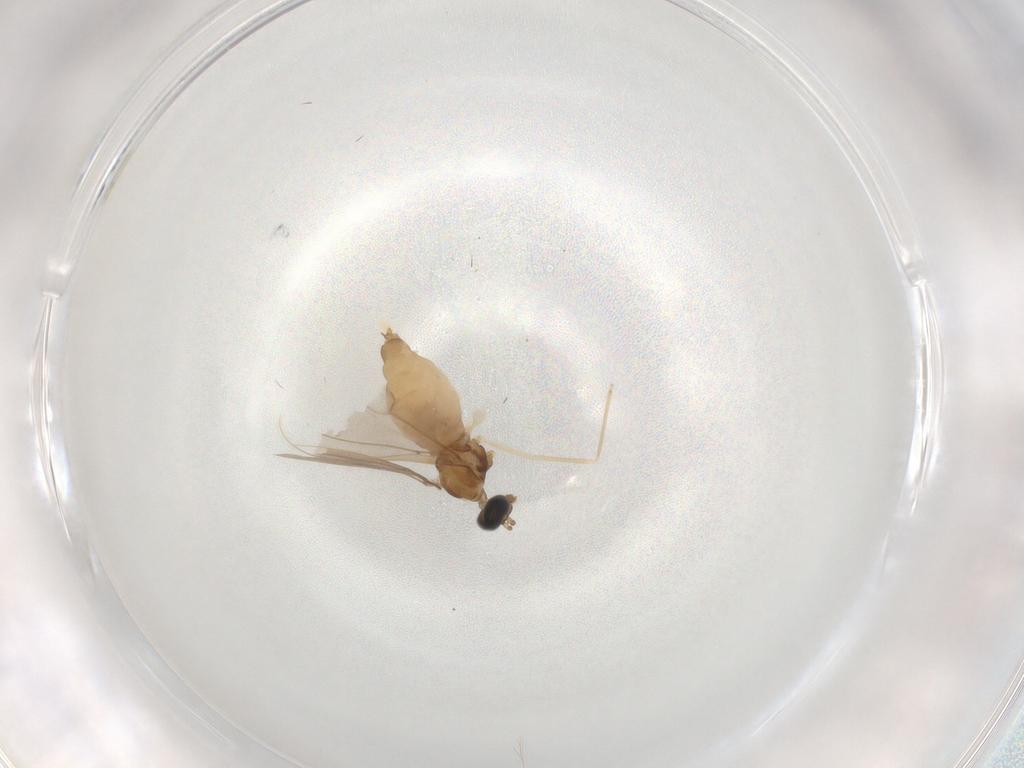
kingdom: Animalia
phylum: Arthropoda
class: Insecta
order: Diptera
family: Cecidomyiidae
